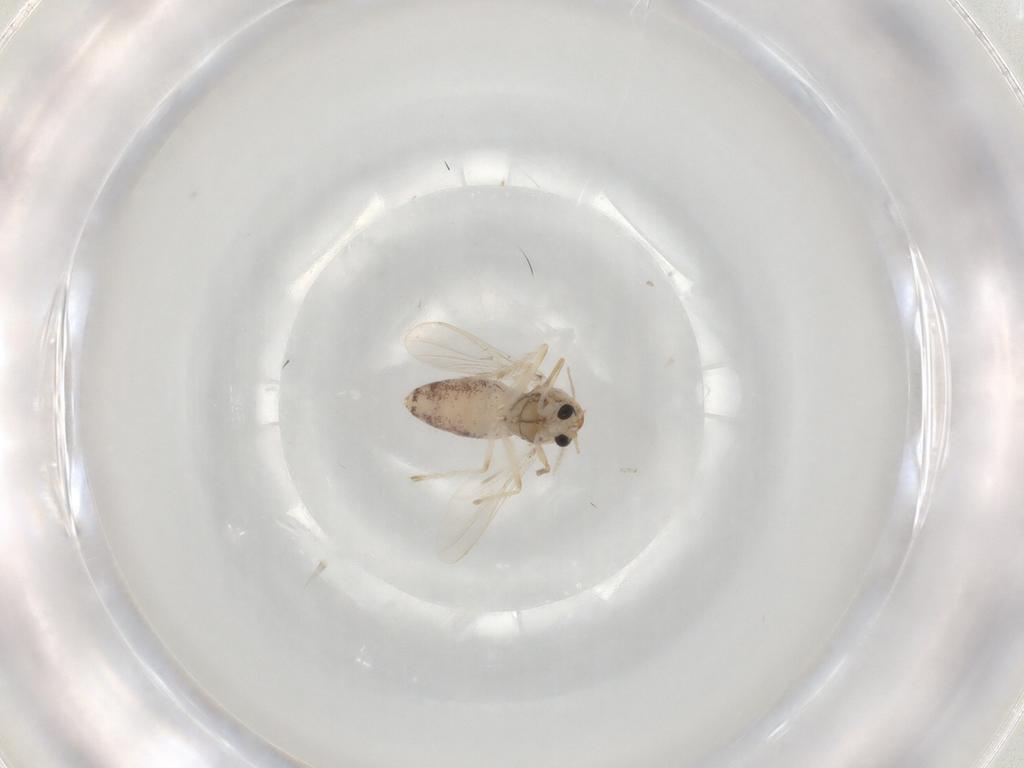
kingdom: Animalia
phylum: Arthropoda
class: Insecta
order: Diptera
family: Chironomidae
